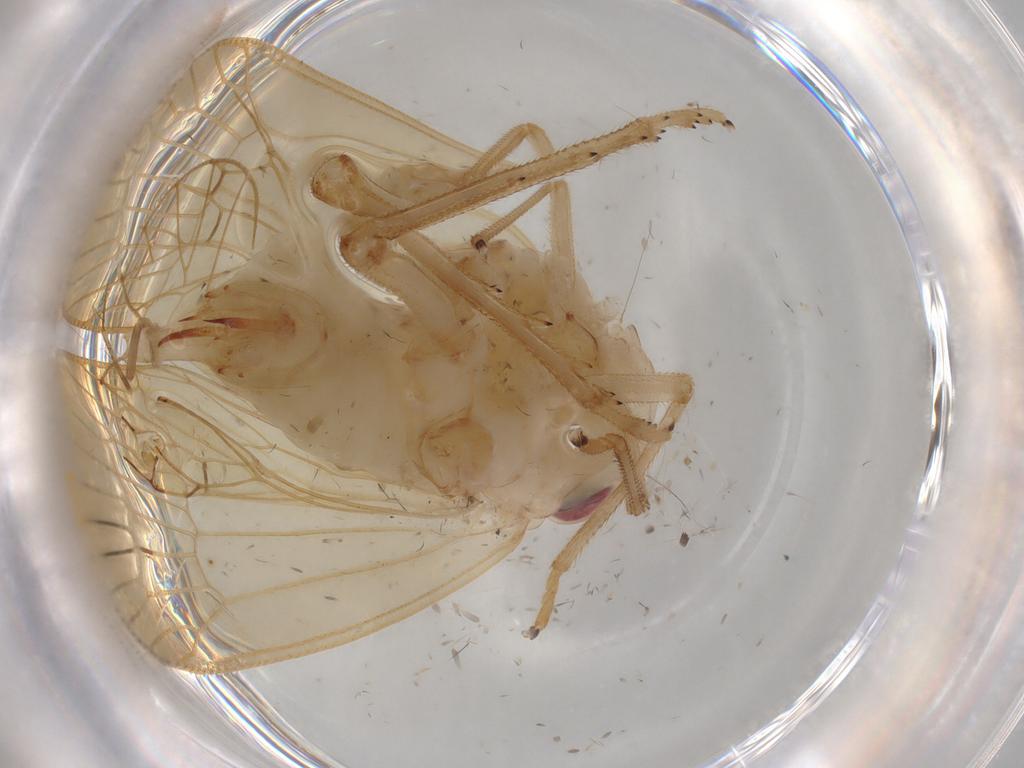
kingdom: Animalia
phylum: Arthropoda
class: Insecta
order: Hemiptera
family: Tropiduchidae
